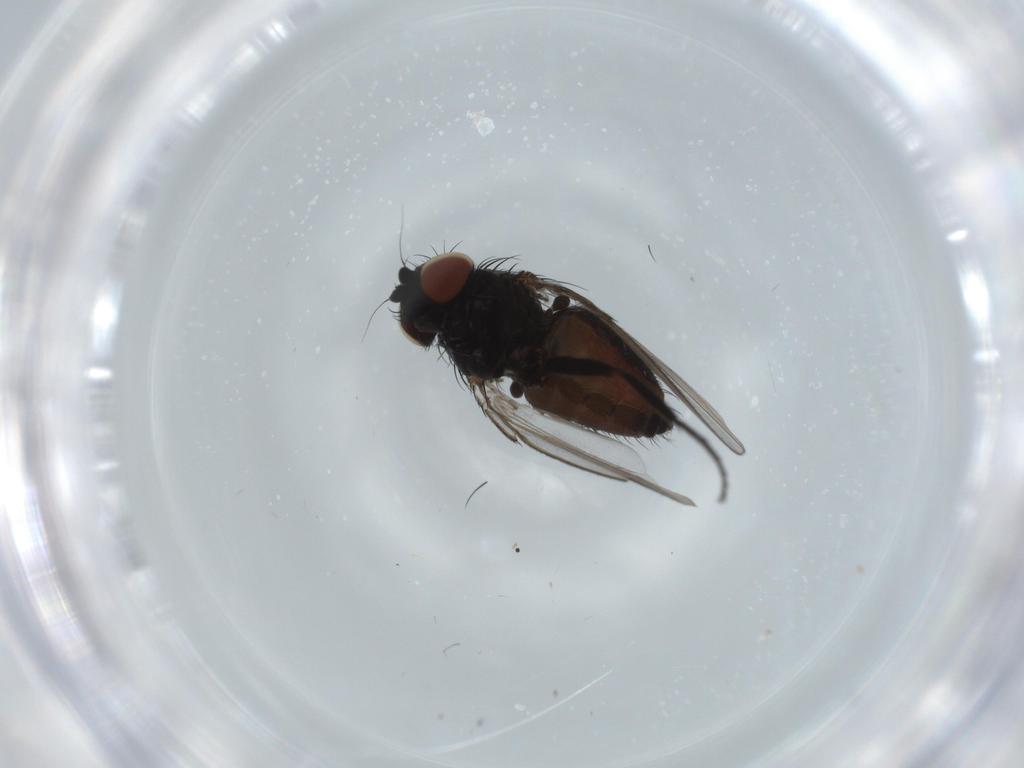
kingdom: Animalia
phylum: Arthropoda
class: Insecta
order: Diptera
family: Milichiidae
